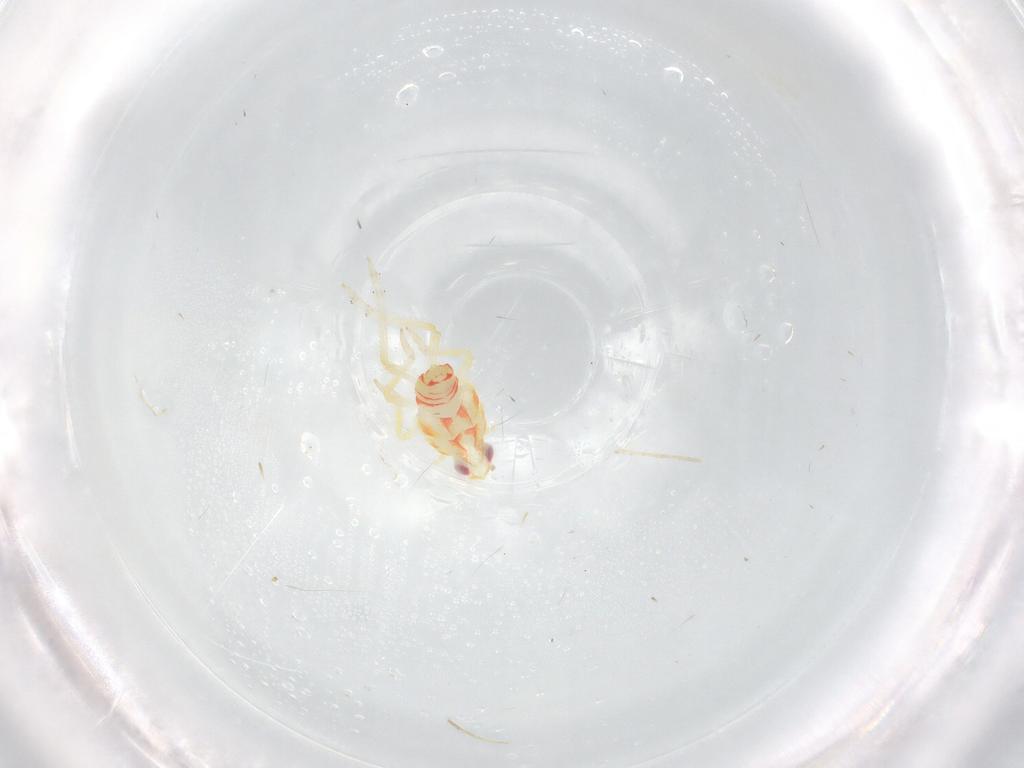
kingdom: Animalia
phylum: Arthropoda
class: Insecta
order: Hemiptera
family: Tropiduchidae
